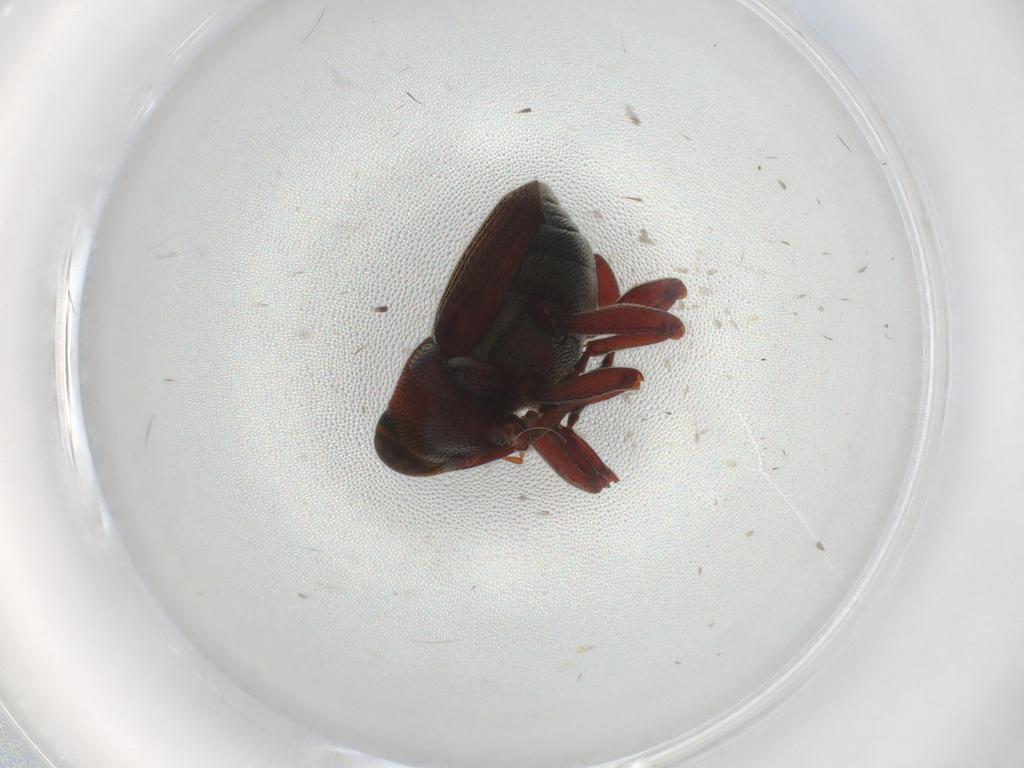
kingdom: Animalia
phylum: Arthropoda
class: Insecta
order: Coleoptera
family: Curculionidae
